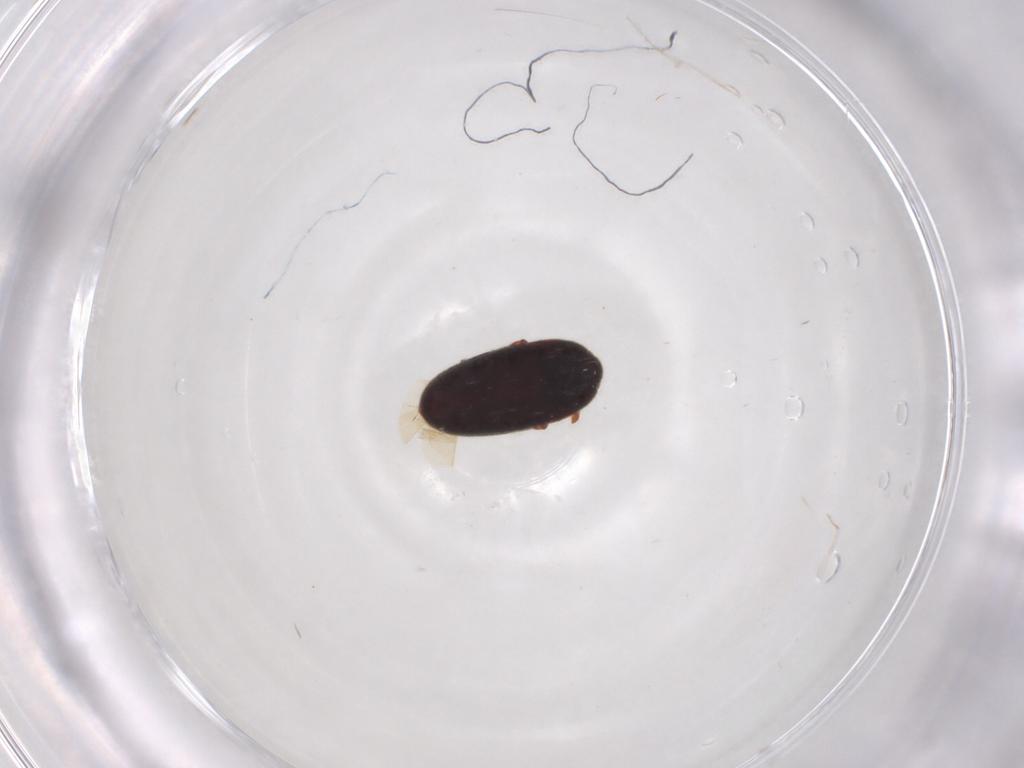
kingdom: Animalia
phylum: Arthropoda
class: Insecta
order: Coleoptera
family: Throscidae
